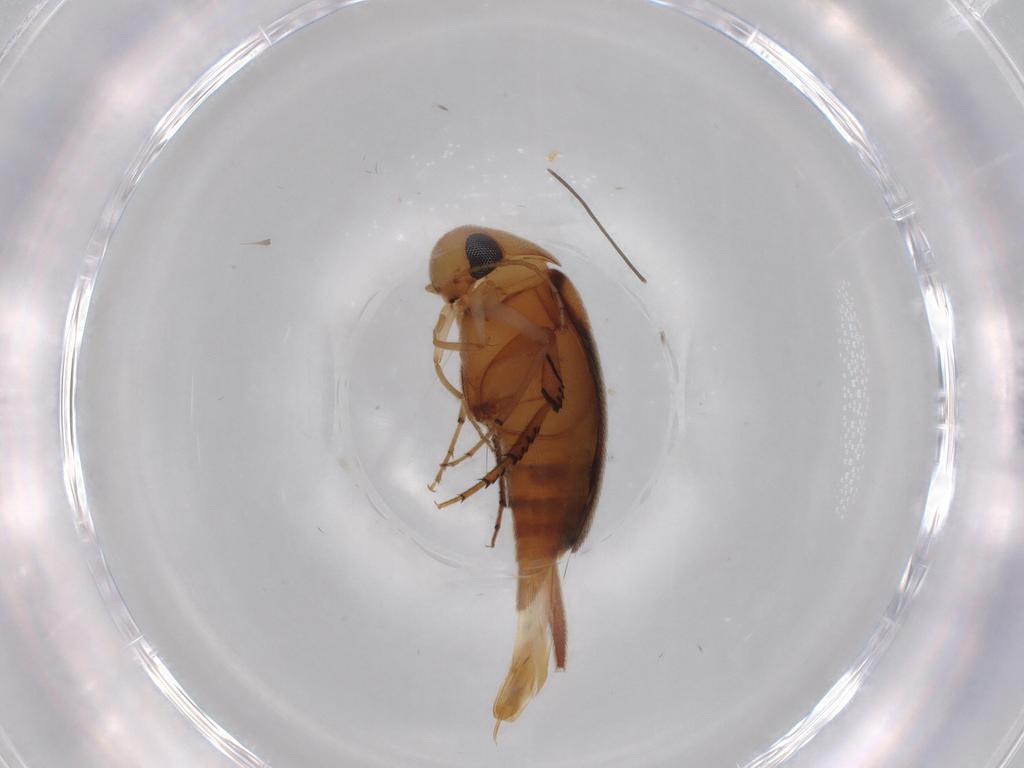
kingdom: Animalia
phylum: Arthropoda
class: Insecta
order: Coleoptera
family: Mordellidae
